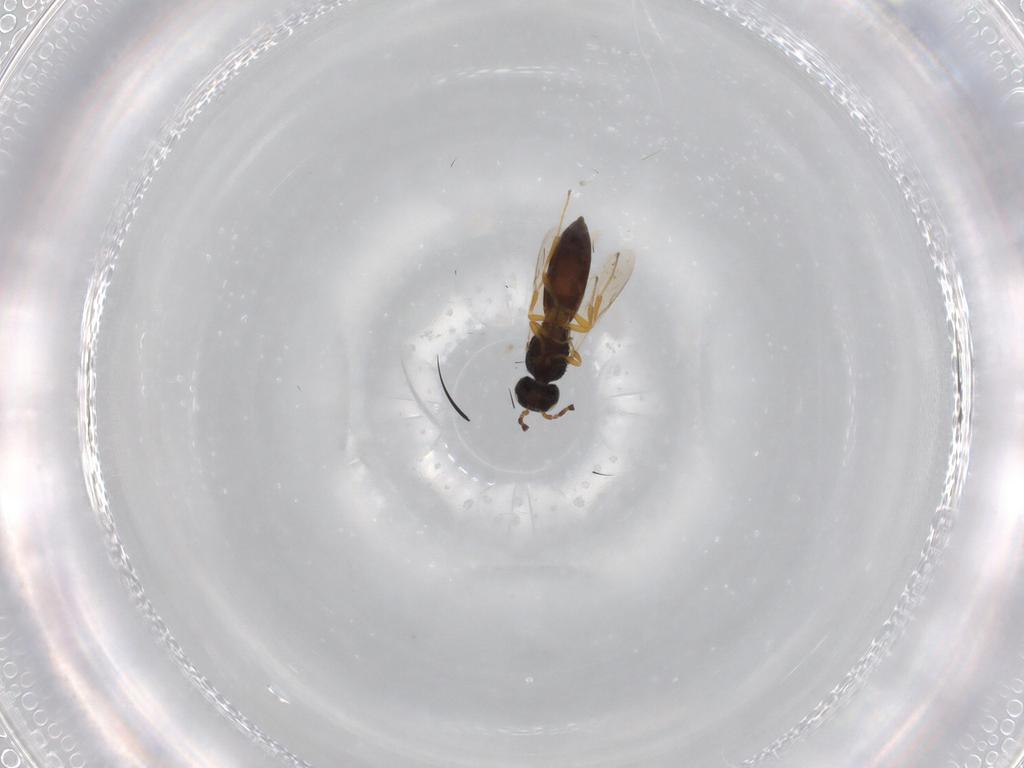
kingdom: Animalia
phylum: Arthropoda
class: Insecta
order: Hymenoptera
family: Scelionidae
